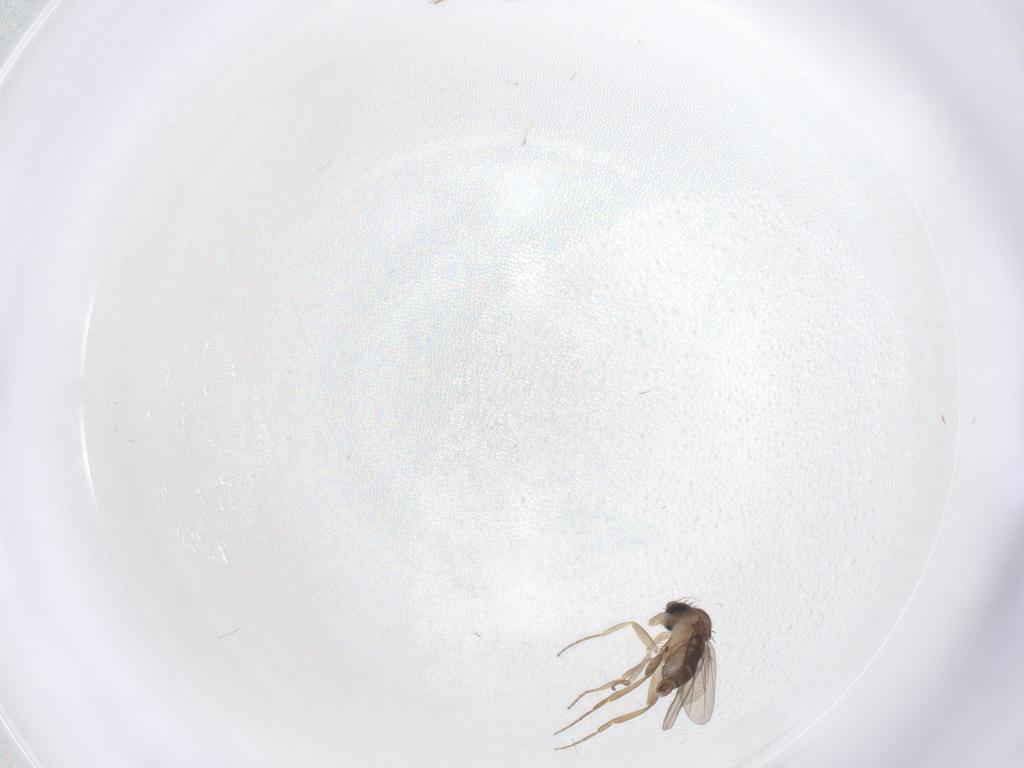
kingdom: Animalia
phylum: Arthropoda
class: Insecta
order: Diptera
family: Phoridae
